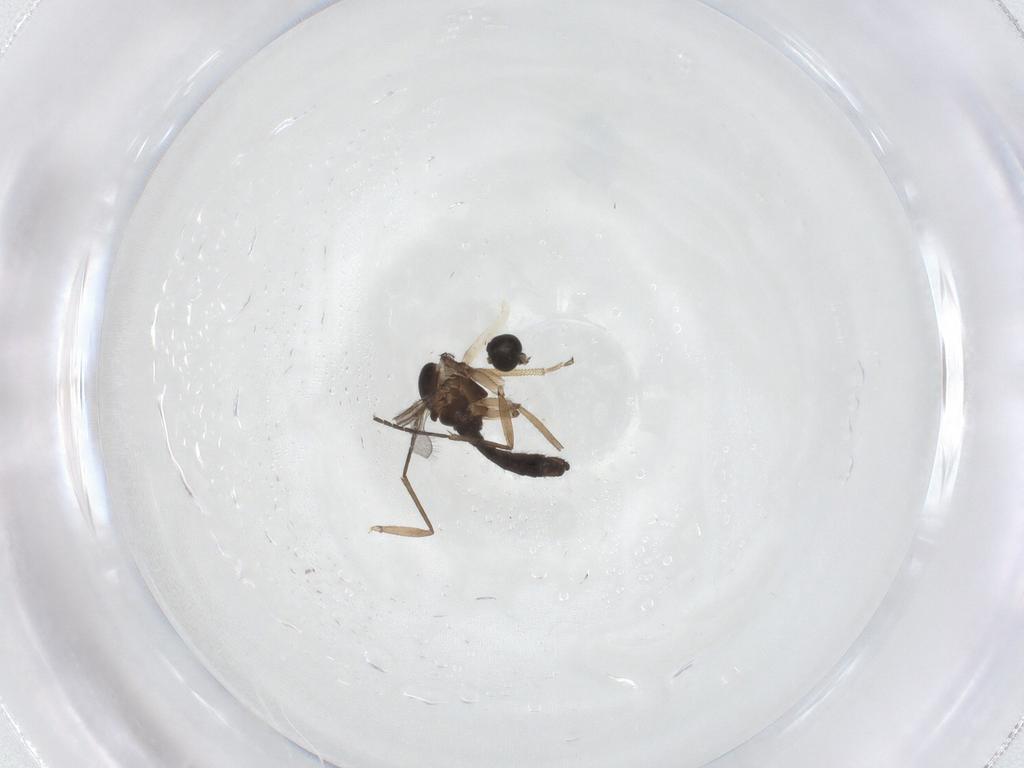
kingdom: Animalia
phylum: Arthropoda
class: Insecta
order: Diptera
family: Sciaridae
